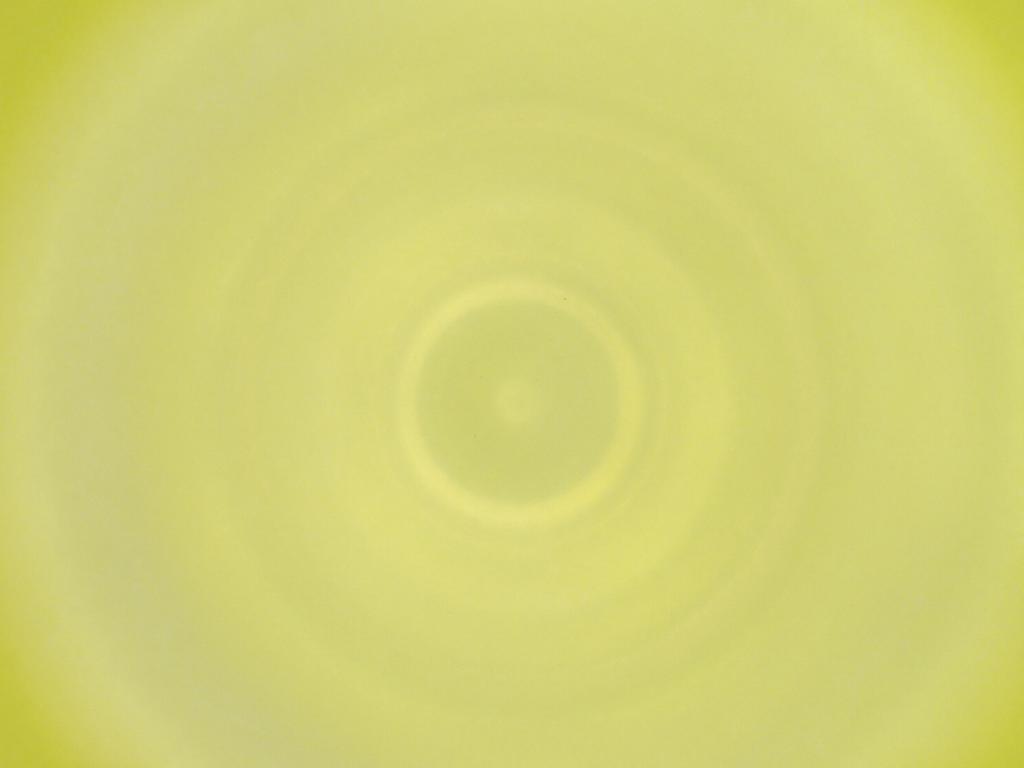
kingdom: Animalia
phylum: Arthropoda
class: Insecta
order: Diptera
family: Cecidomyiidae
